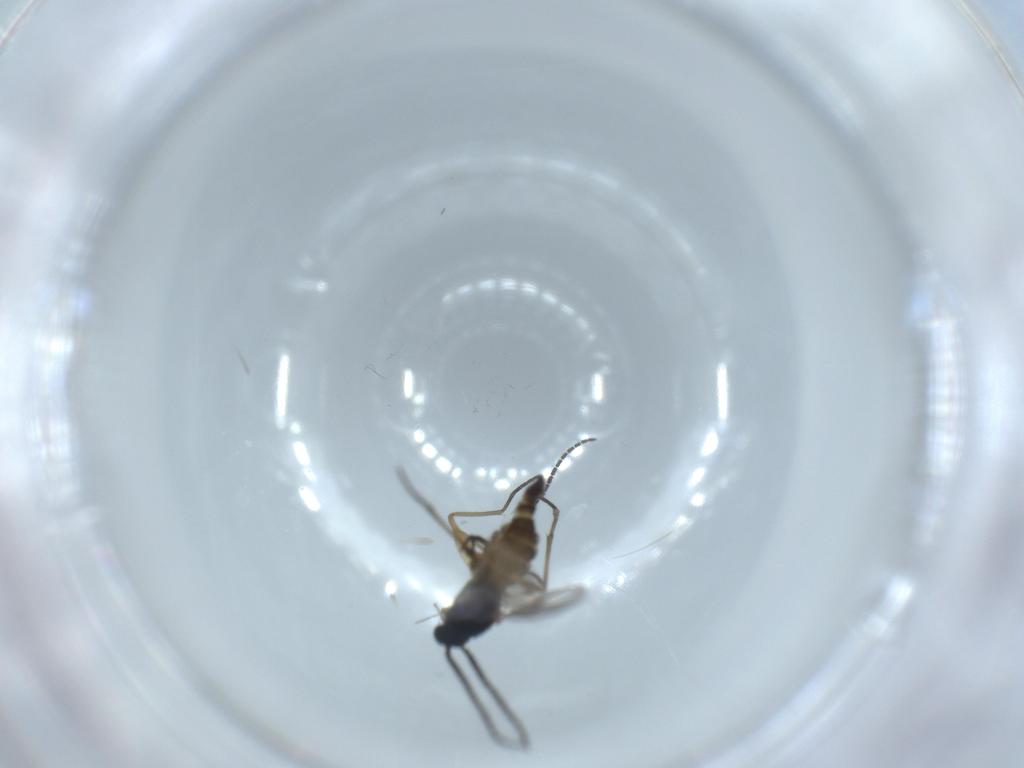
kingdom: Animalia
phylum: Arthropoda
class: Insecta
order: Diptera
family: Sciaridae
